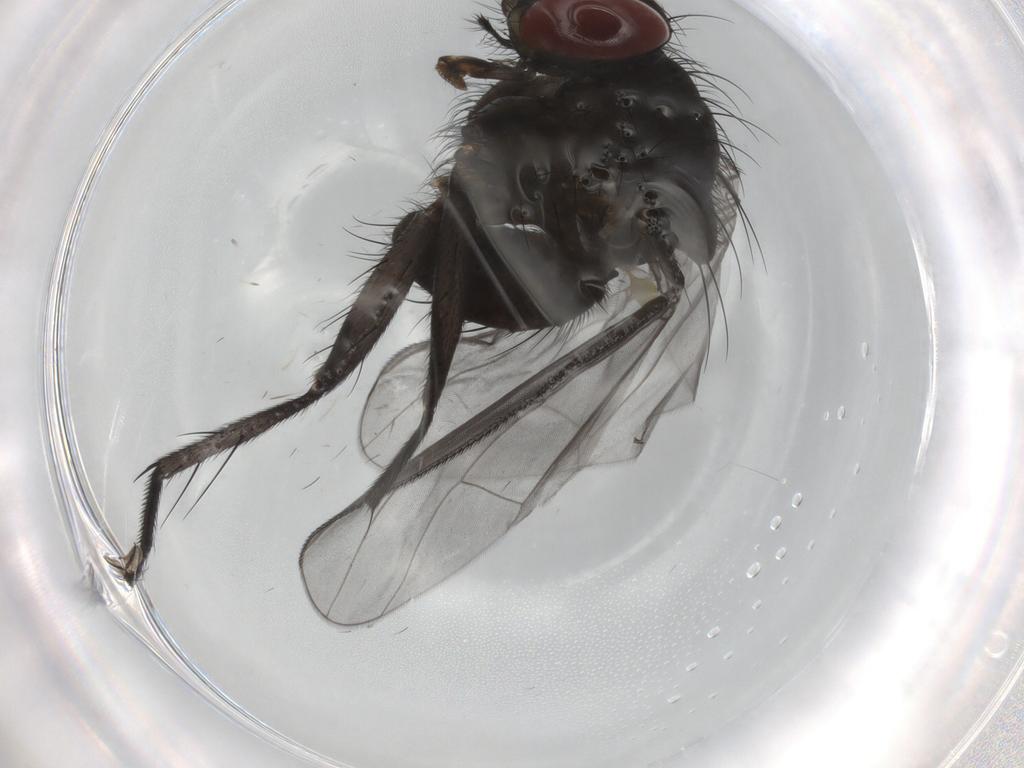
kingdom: Animalia
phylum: Arthropoda
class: Insecta
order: Diptera
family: Muscidae
